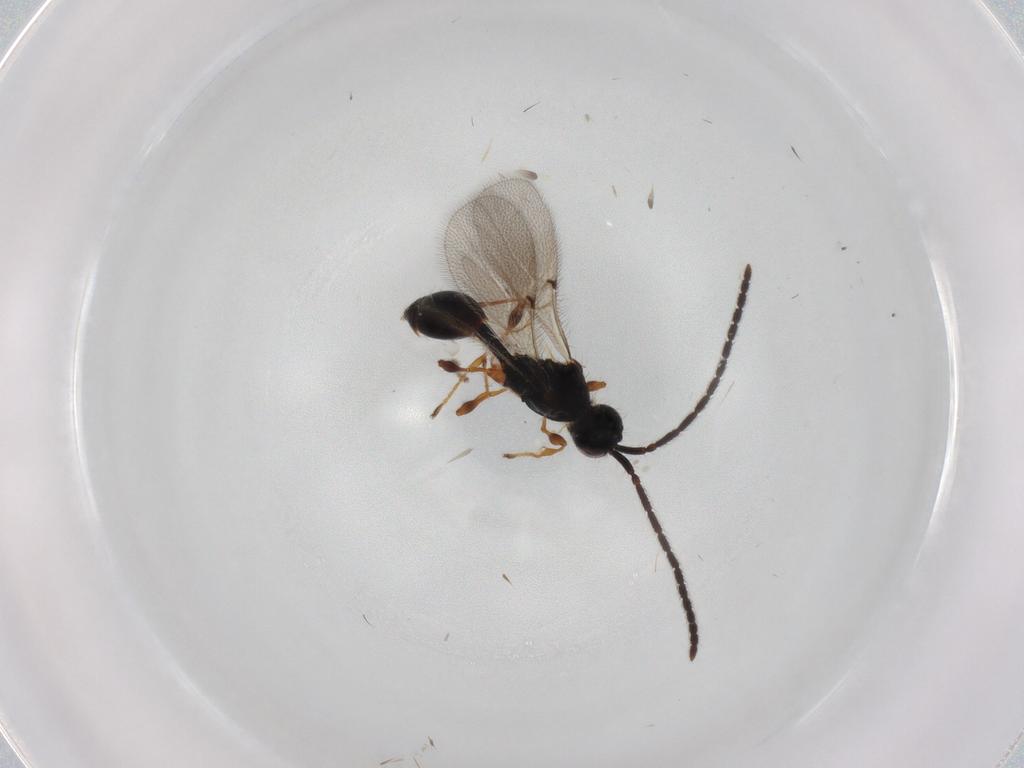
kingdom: Animalia
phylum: Arthropoda
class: Insecta
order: Hymenoptera
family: Diapriidae
